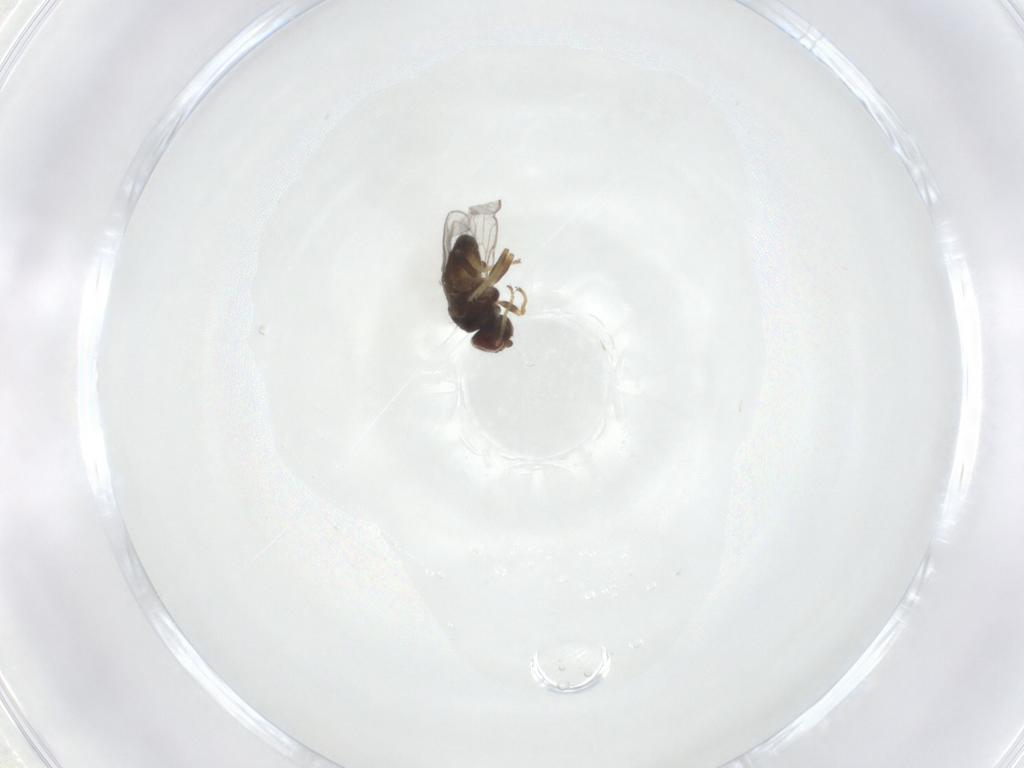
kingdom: Animalia
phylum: Arthropoda
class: Insecta
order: Diptera
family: Chloropidae
